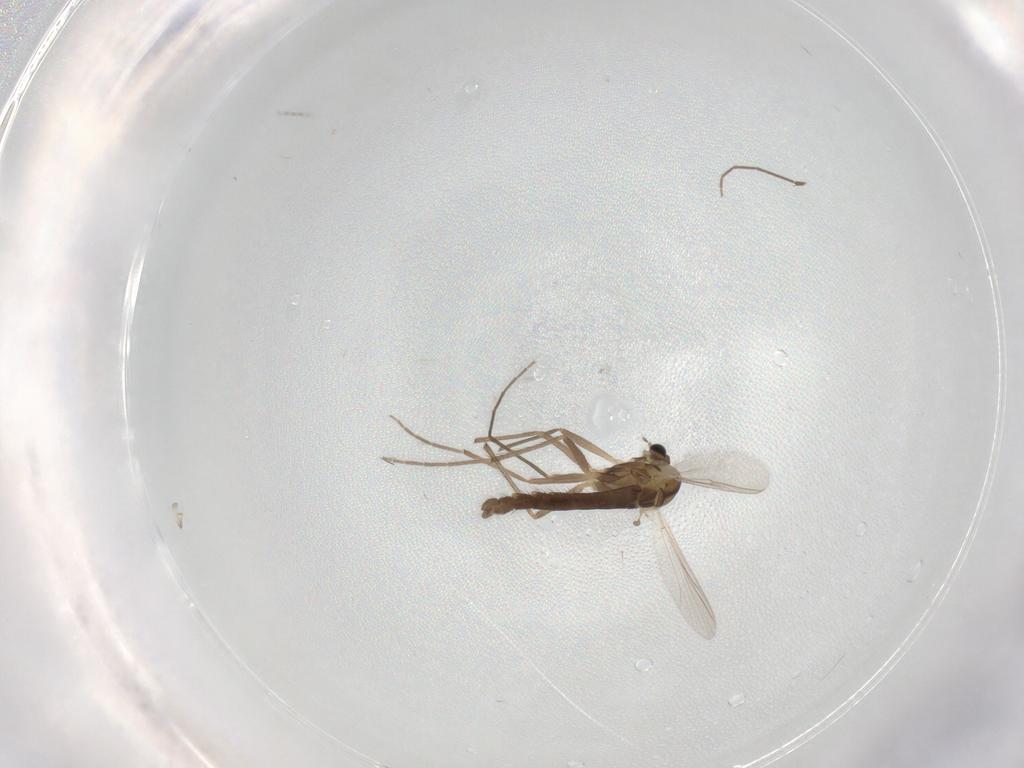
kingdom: Animalia
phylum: Arthropoda
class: Insecta
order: Diptera
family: Chironomidae
